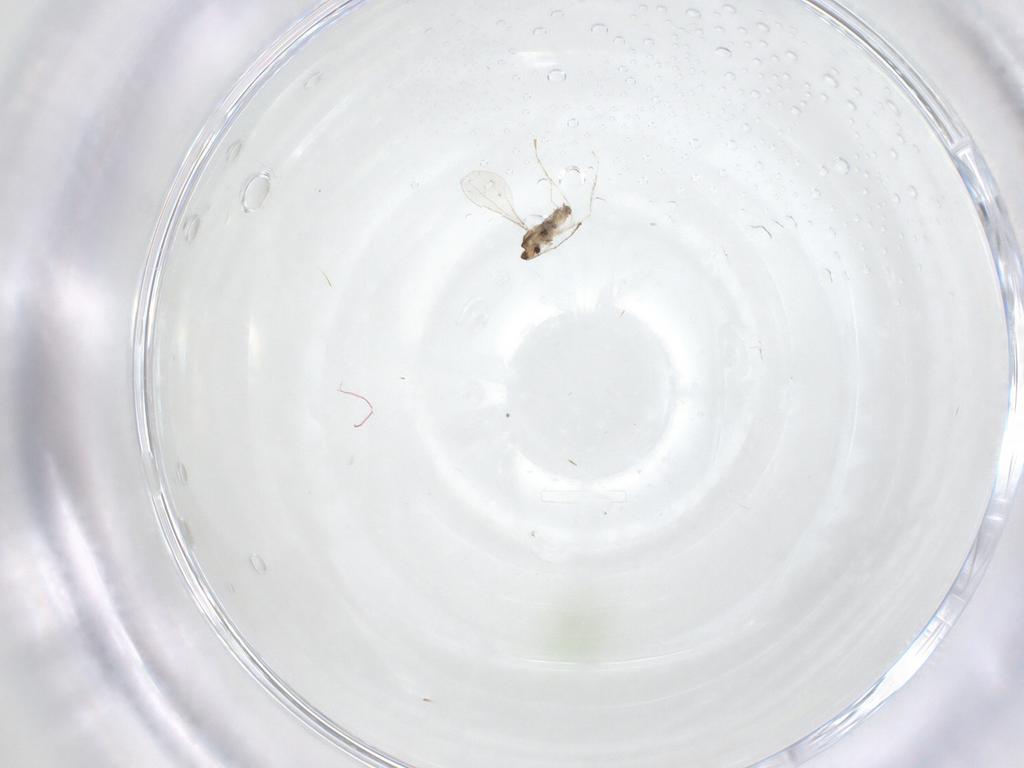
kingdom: Animalia
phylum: Arthropoda
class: Insecta
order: Diptera
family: Cecidomyiidae
